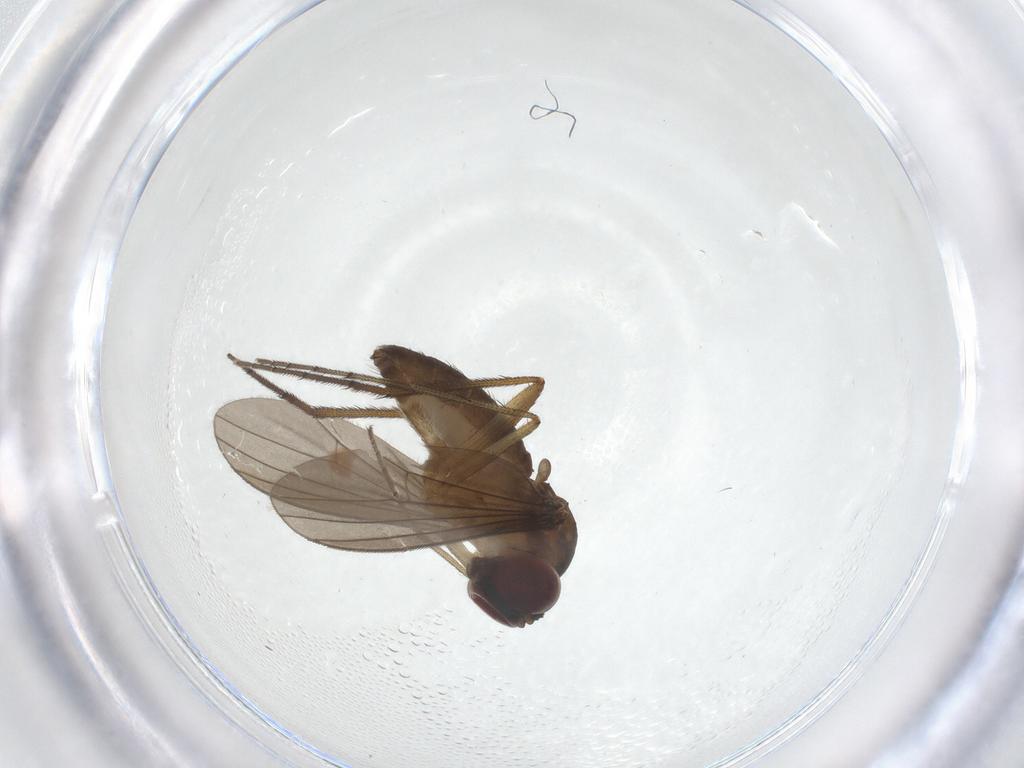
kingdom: Animalia
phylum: Arthropoda
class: Insecta
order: Diptera
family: Dolichopodidae
